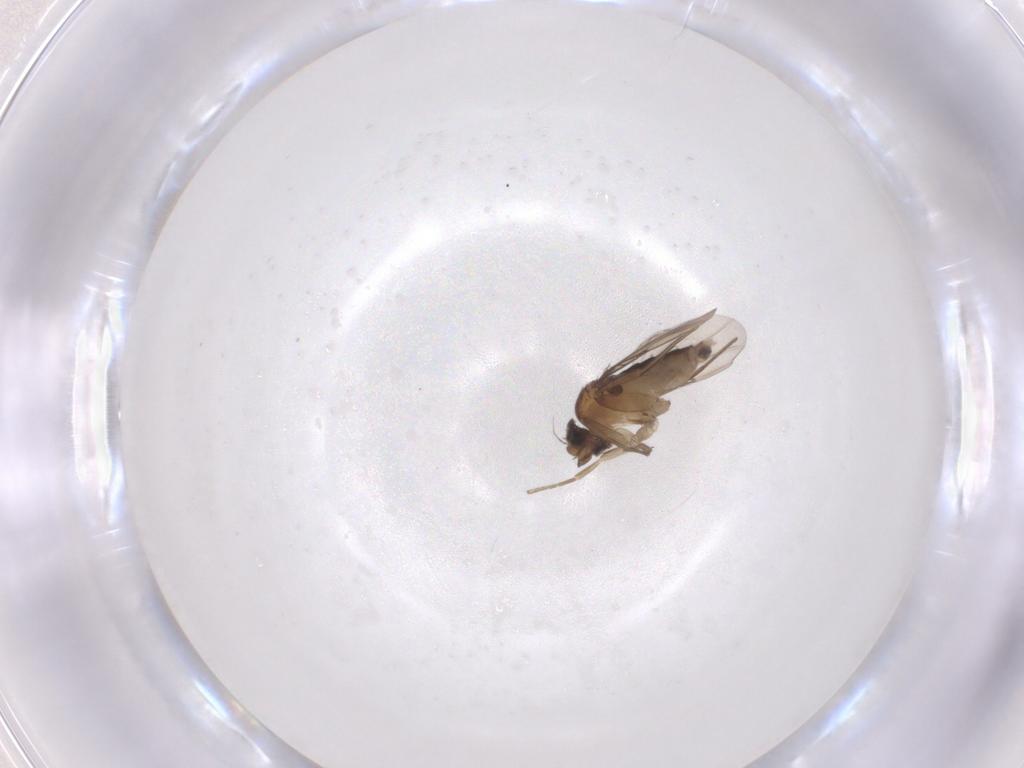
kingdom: Animalia
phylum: Arthropoda
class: Insecta
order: Diptera
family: Phoridae
